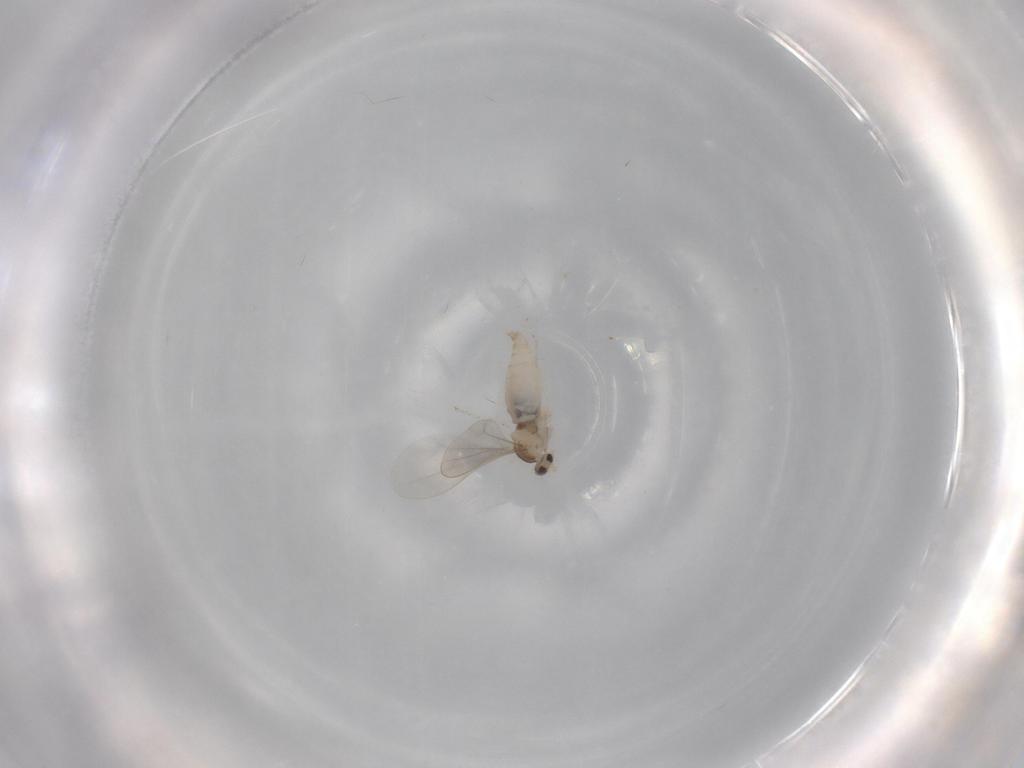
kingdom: Animalia
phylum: Arthropoda
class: Insecta
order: Diptera
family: Cecidomyiidae
